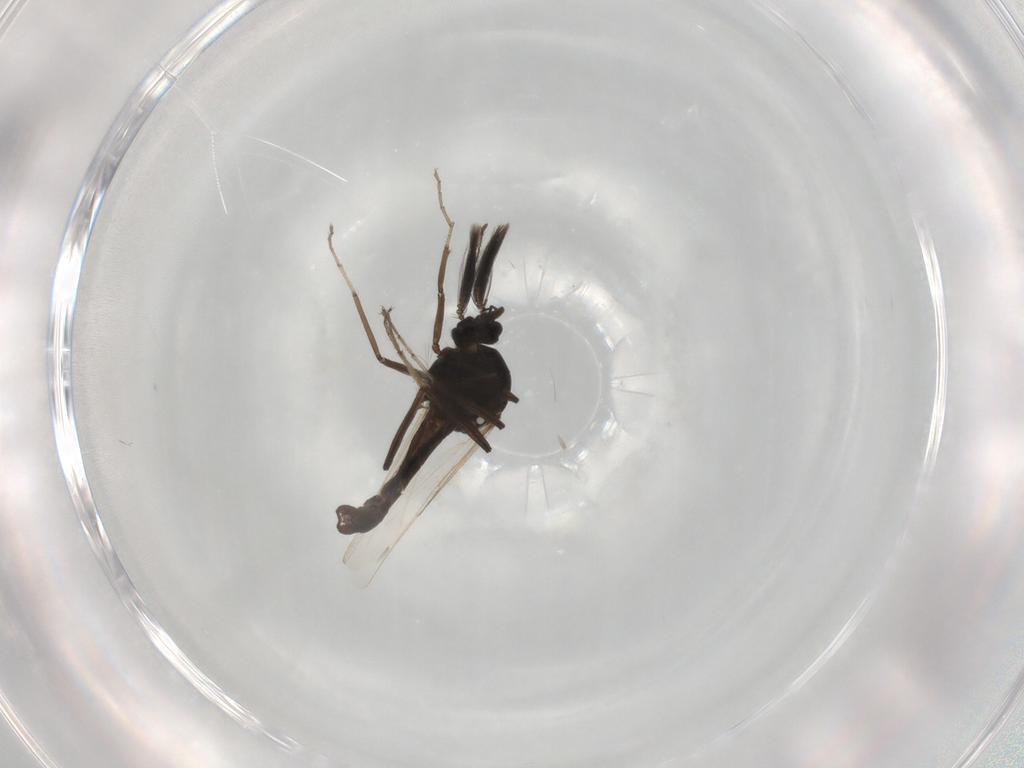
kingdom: Animalia
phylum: Arthropoda
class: Insecta
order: Diptera
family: Ceratopogonidae
